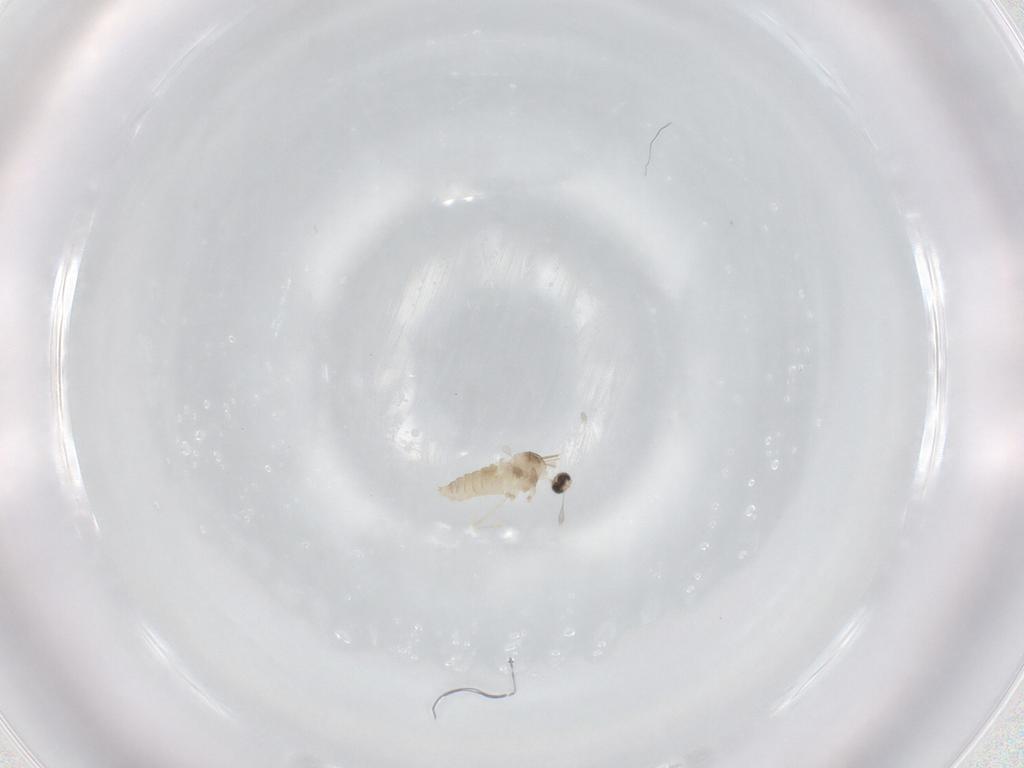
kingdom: Animalia
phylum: Arthropoda
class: Insecta
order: Diptera
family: Cecidomyiidae
